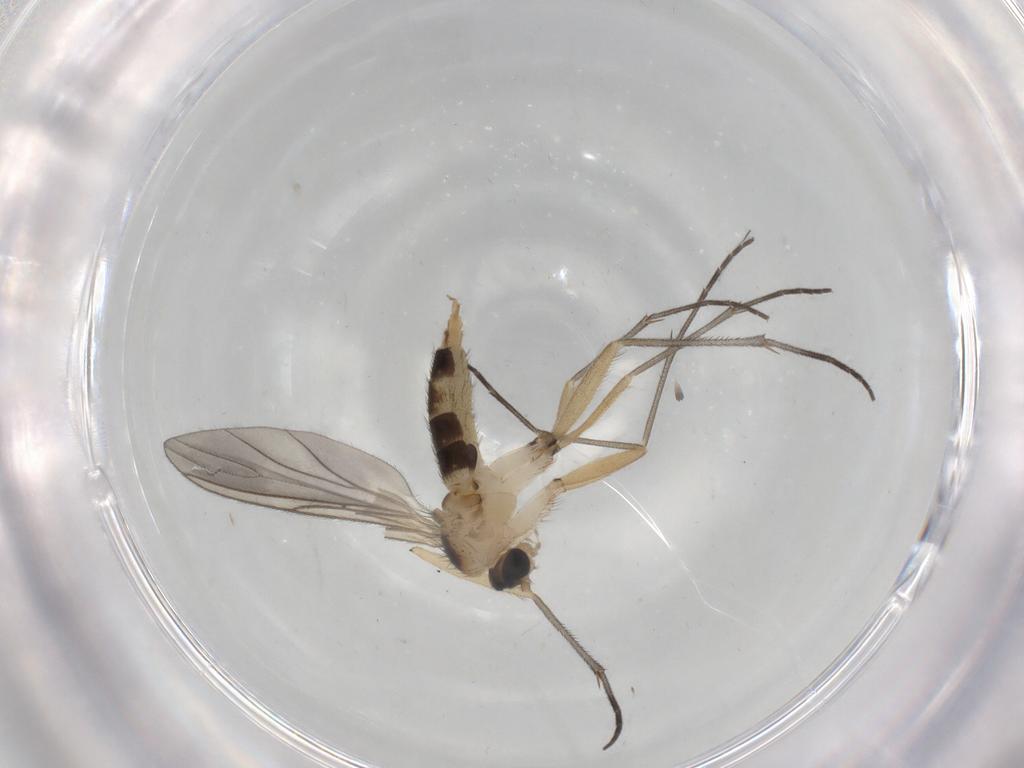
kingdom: Animalia
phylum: Arthropoda
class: Insecta
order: Diptera
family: Sciaridae
